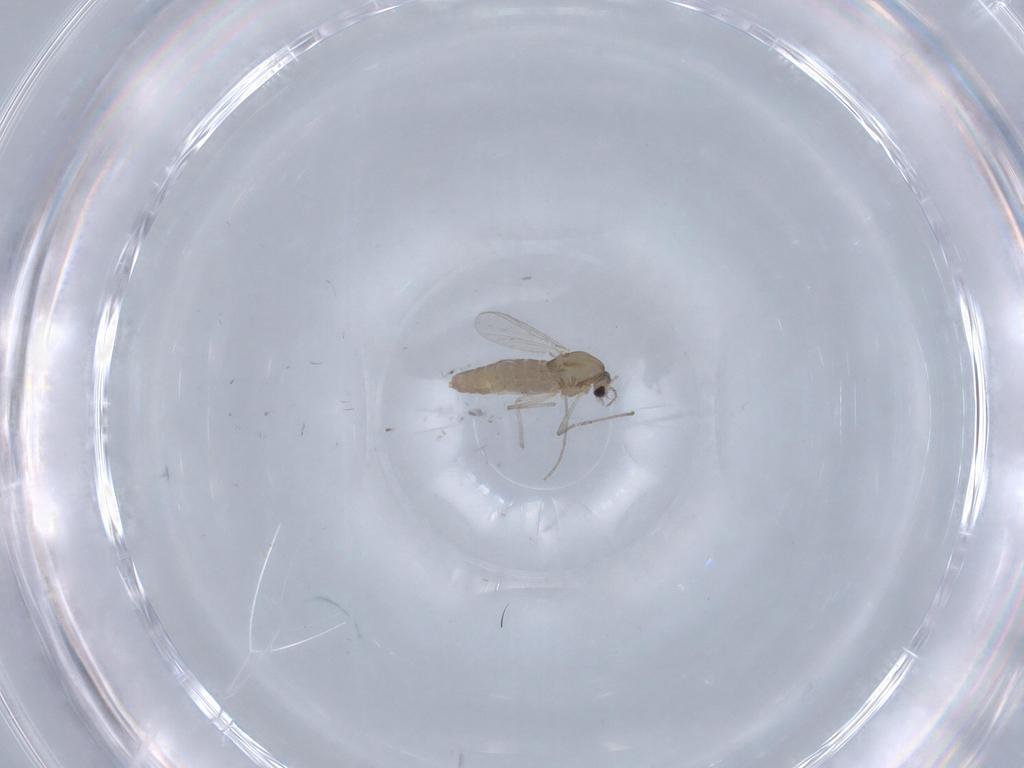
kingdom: Animalia
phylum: Arthropoda
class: Insecta
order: Diptera
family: Chironomidae
